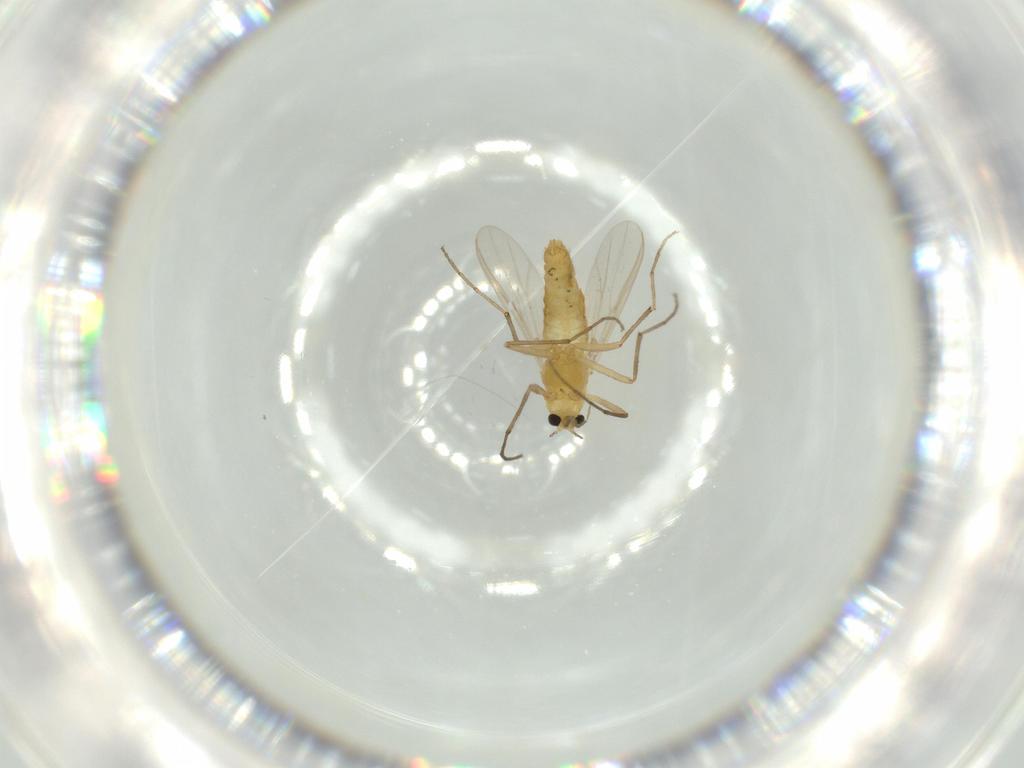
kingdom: Animalia
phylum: Arthropoda
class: Insecta
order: Diptera
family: Chironomidae
